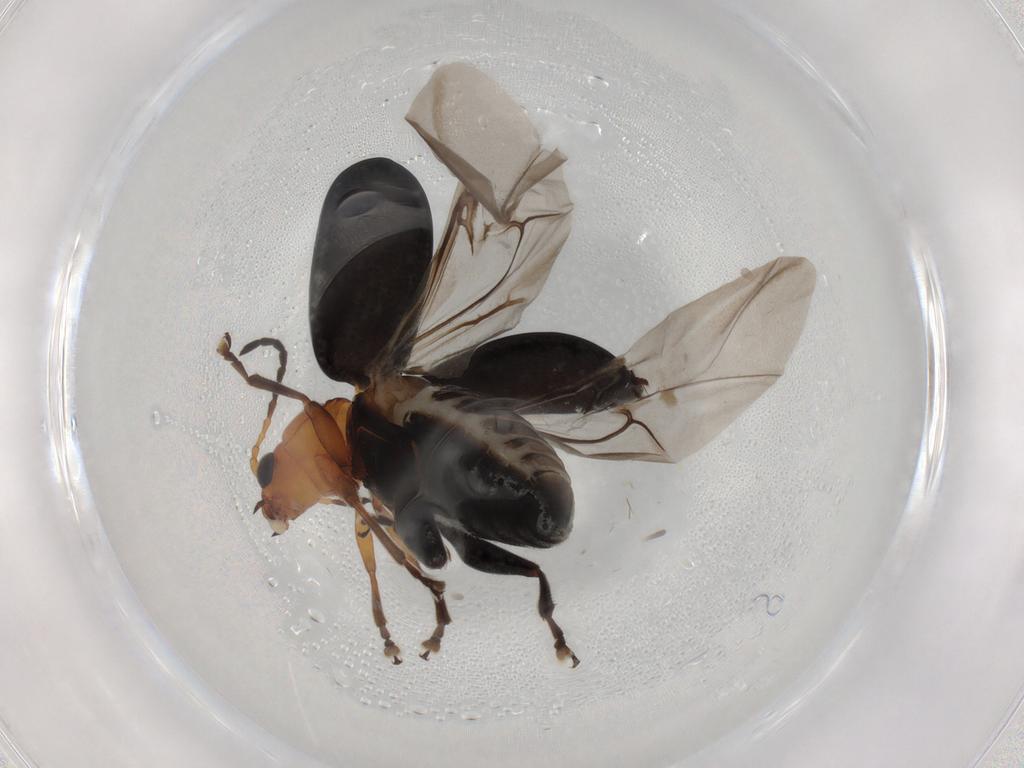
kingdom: Animalia
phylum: Arthropoda
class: Insecta
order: Coleoptera
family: Chrysomelidae
